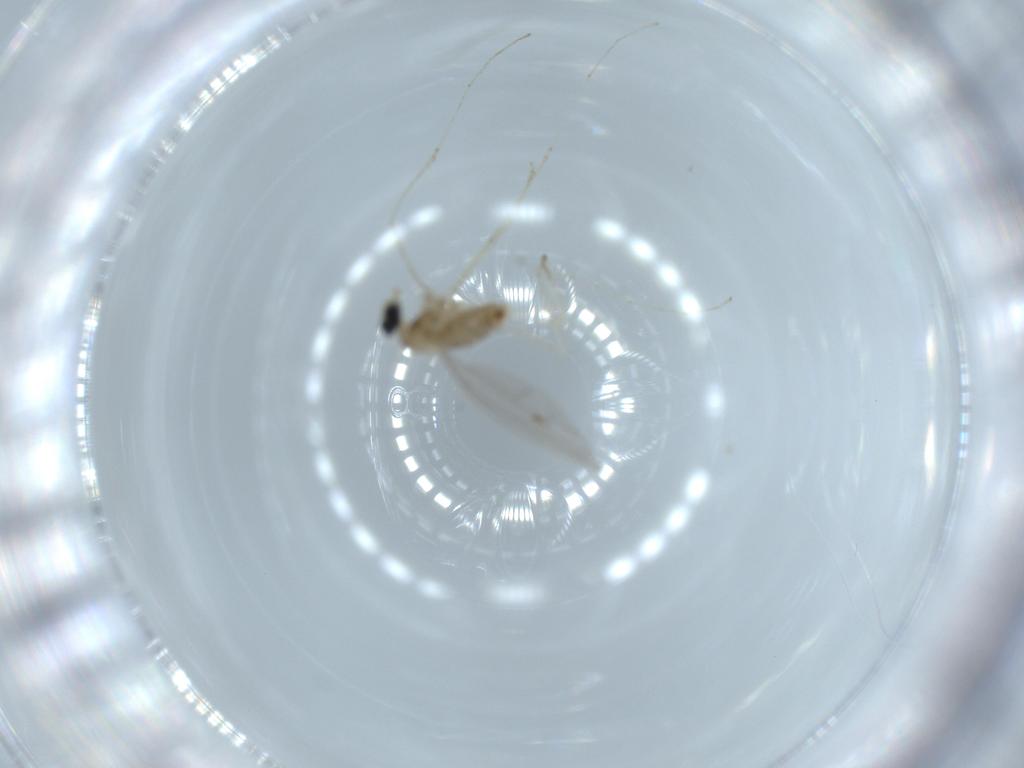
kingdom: Animalia
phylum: Arthropoda
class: Insecta
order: Diptera
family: Cecidomyiidae
